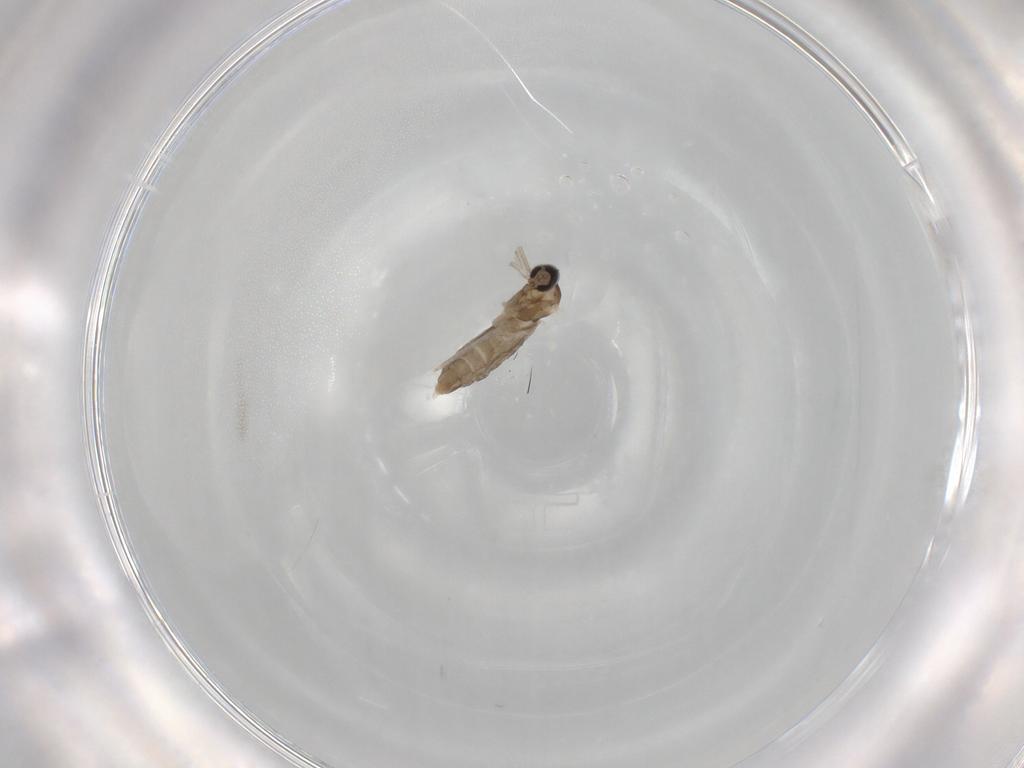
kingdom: Animalia
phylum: Arthropoda
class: Insecta
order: Diptera
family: Cecidomyiidae
